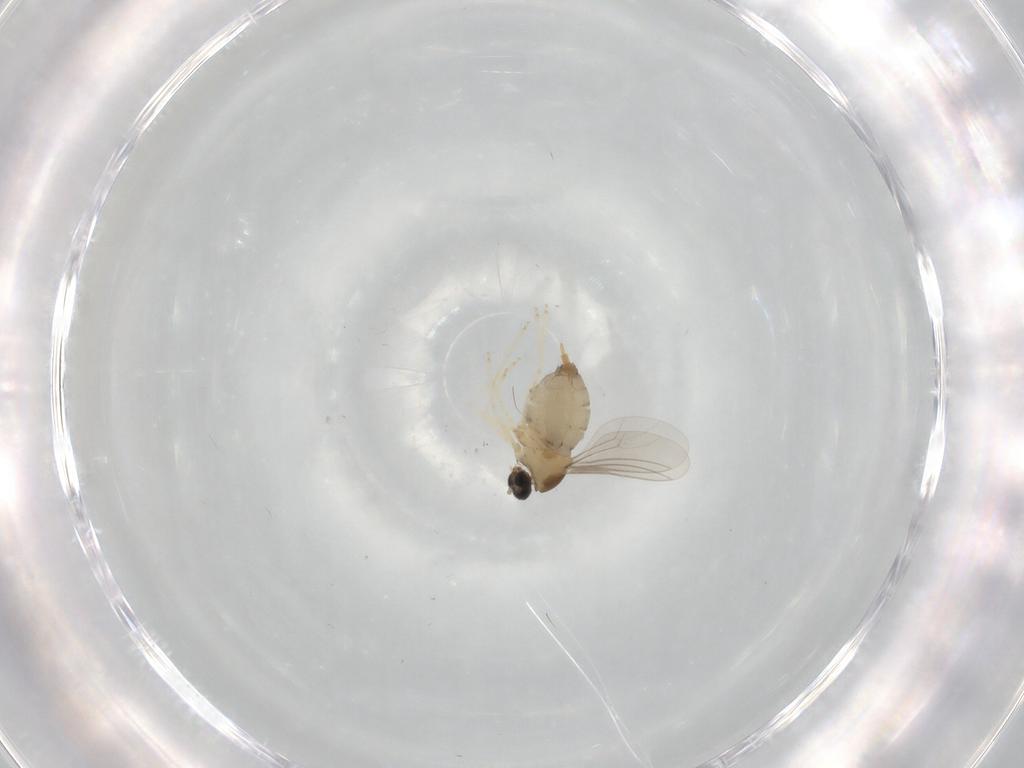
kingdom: Animalia
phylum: Arthropoda
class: Insecta
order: Diptera
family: Cecidomyiidae
